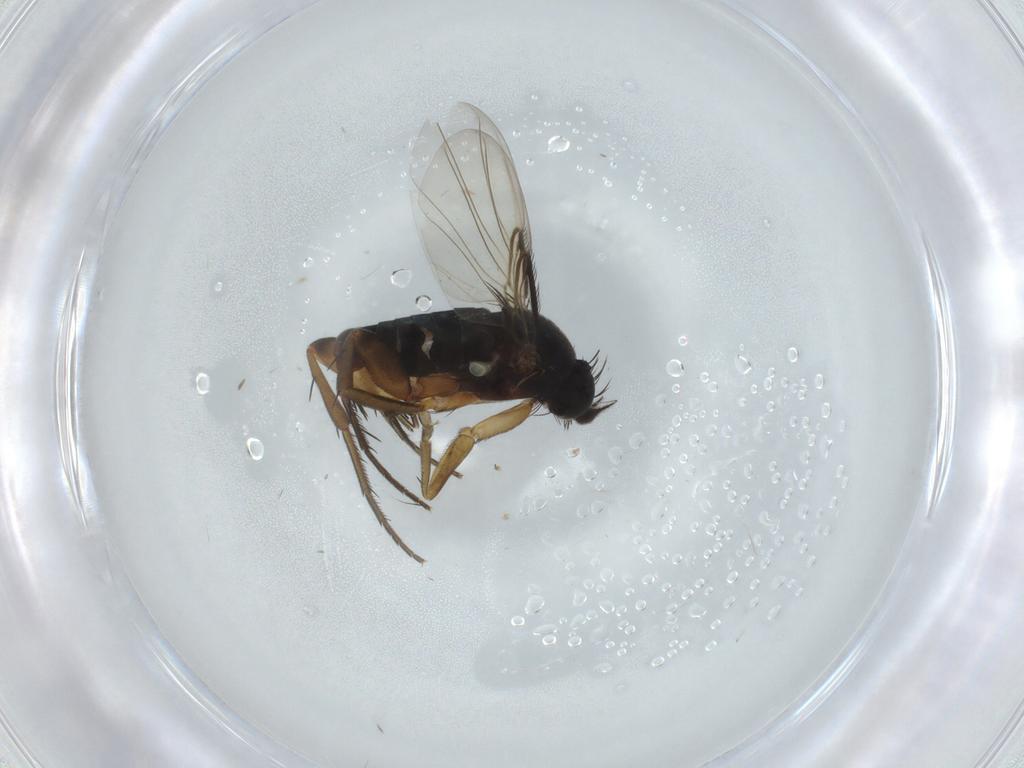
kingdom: Animalia
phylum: Arthropoda
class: Insecta
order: Diptera
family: Phoridae
